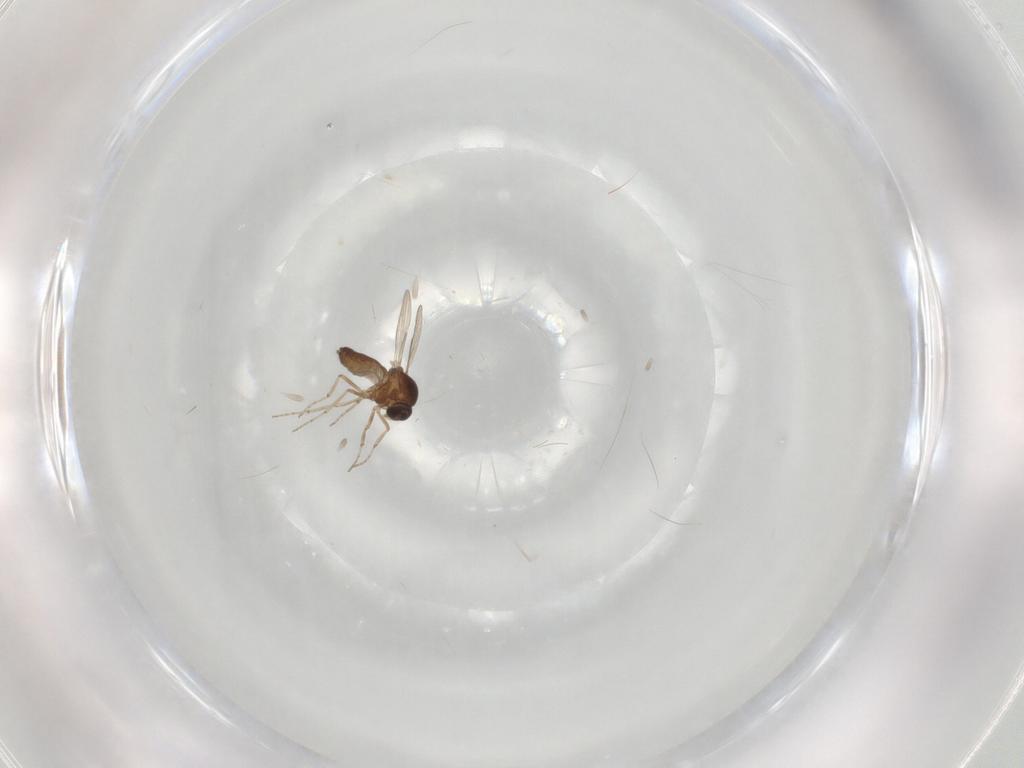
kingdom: Animalia
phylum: Arthropoda
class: Insecta
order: Diptera
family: Ceratopogonidae
